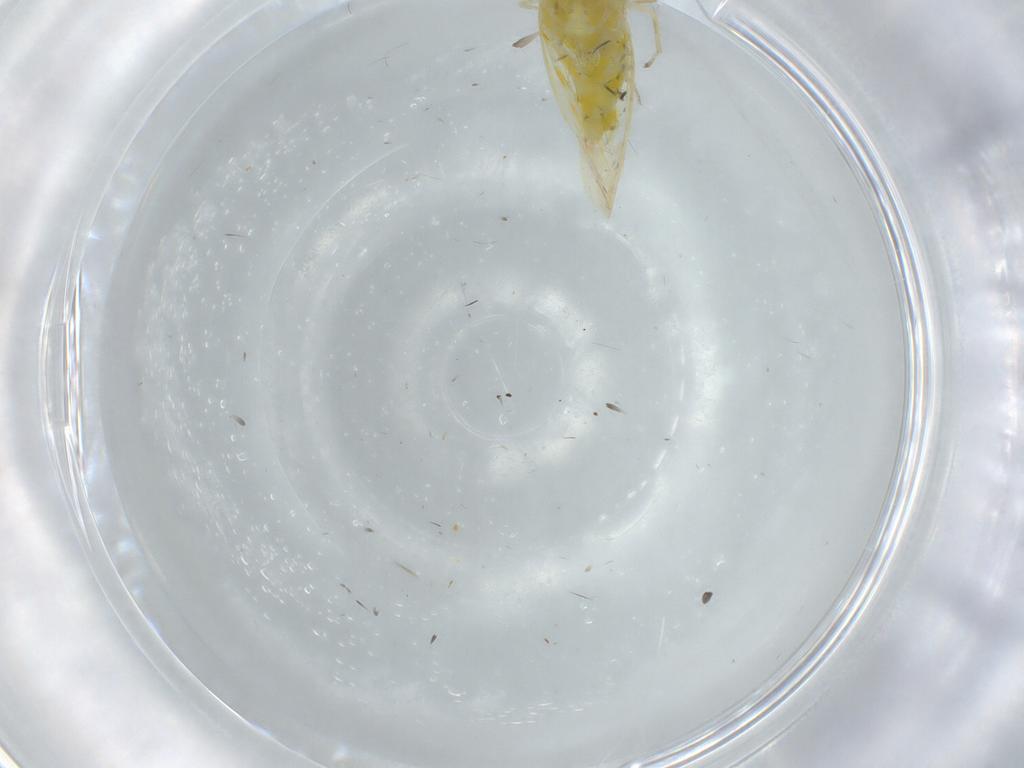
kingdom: Animalia
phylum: Arthropoda
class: Insecta
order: Hemiptera
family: Cicadellidae
